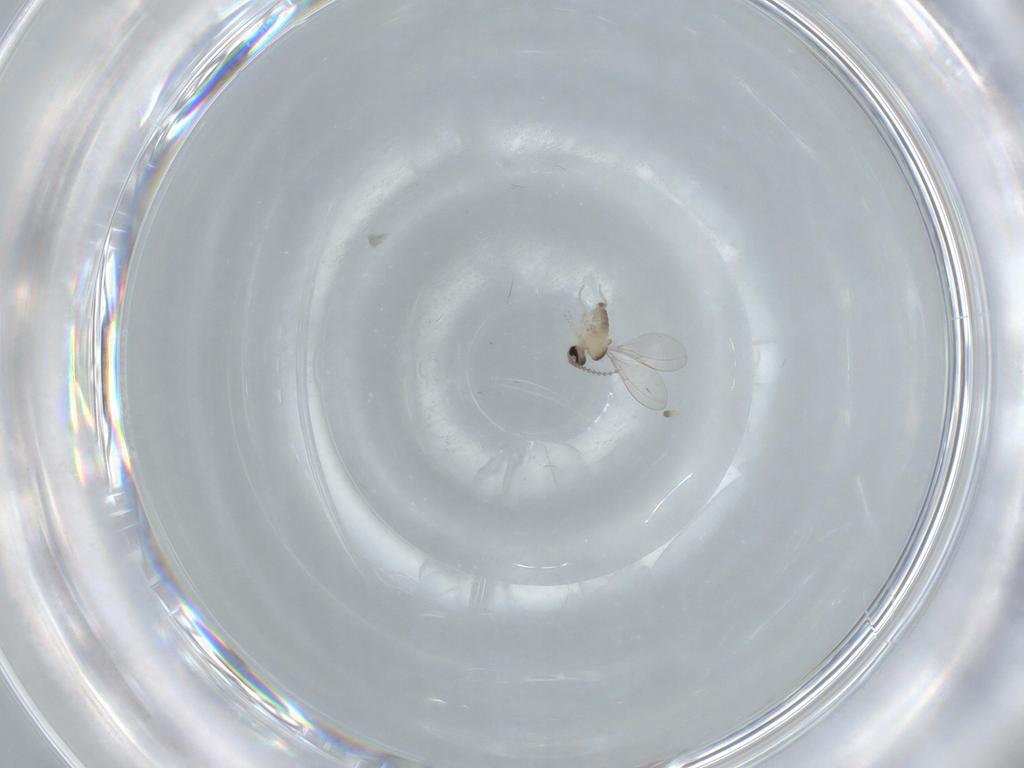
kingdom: Animalia
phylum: Arthropoda
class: Insecta
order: Diptera
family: Cecidomyiidae
